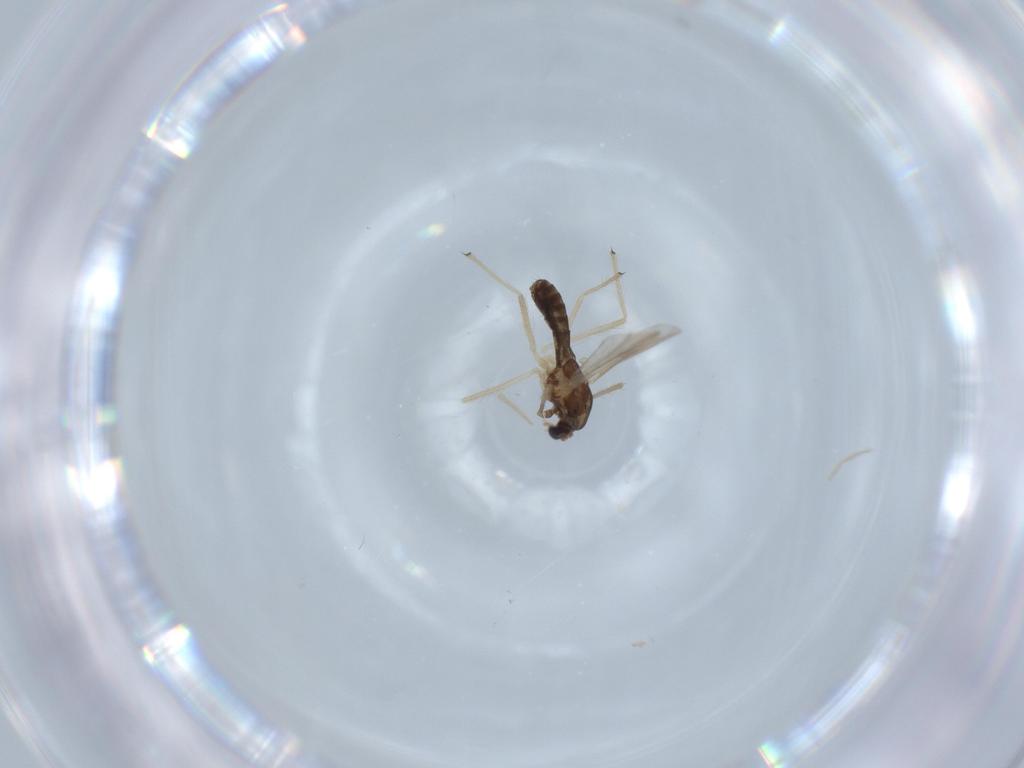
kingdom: Animalia
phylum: Arthropoda
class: Insecta
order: Diptera
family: Chironomidae
